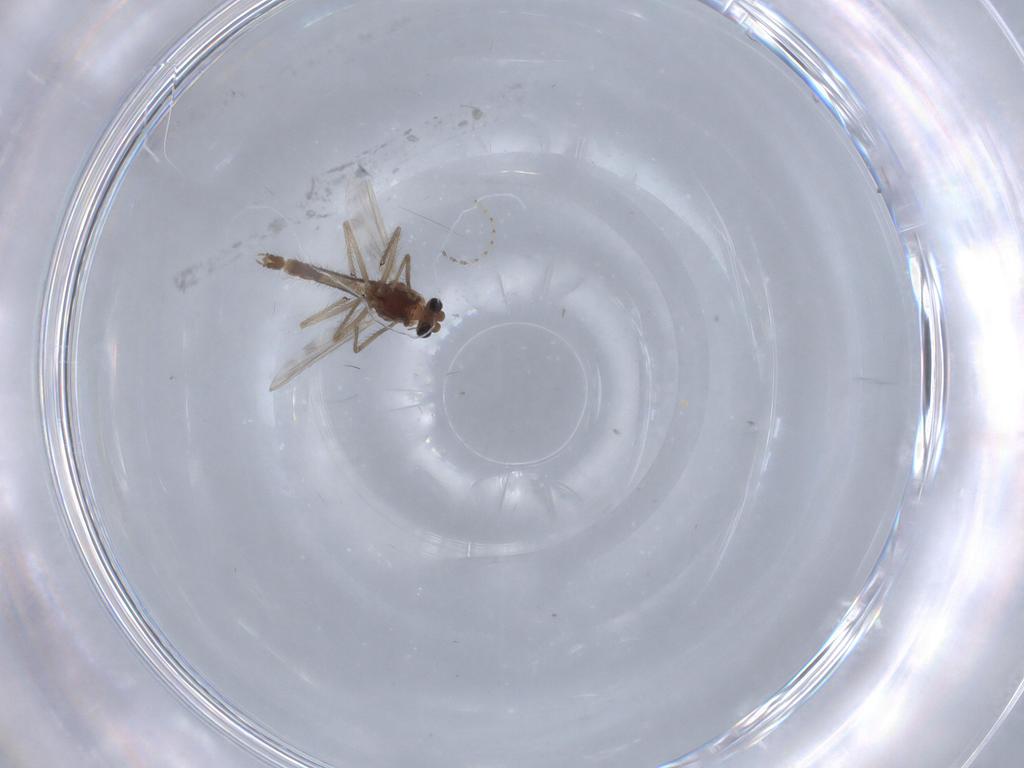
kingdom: Animalia
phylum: Arthropoda
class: Insecta
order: Diptera
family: Chironomidae
